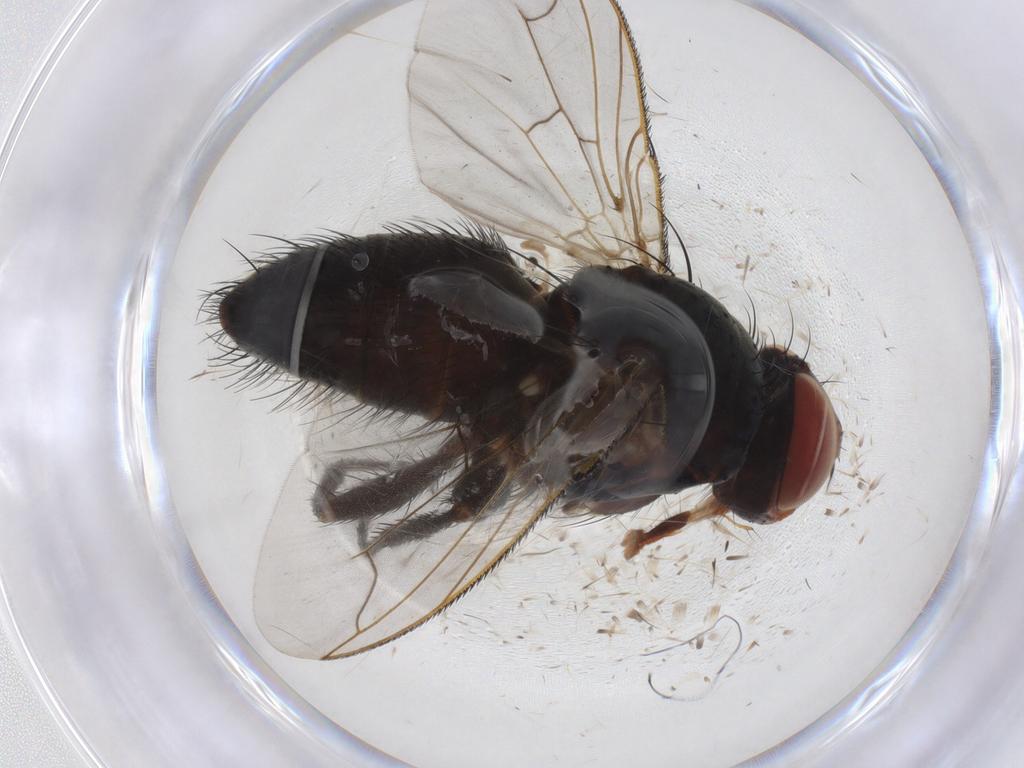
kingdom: Animalia
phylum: Arthropoda
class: Insecta
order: Diptera
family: Tachinidae
